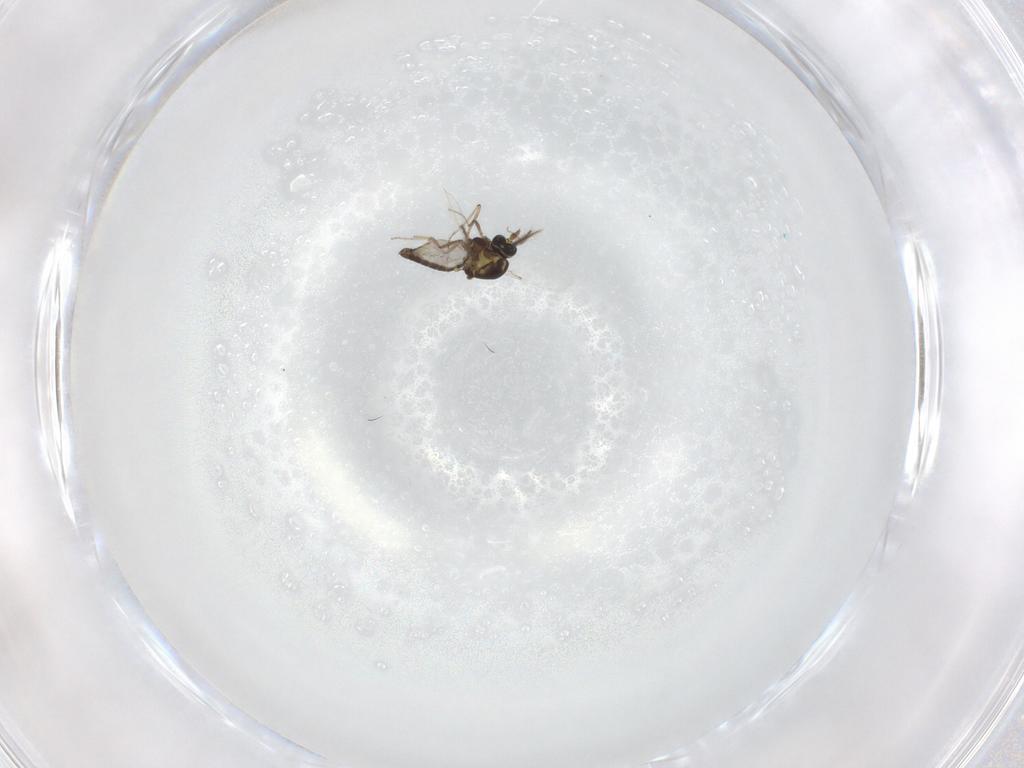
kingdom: Animalia
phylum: Arthropoda
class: Insecta
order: Diptera
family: Ceratopogonidae
